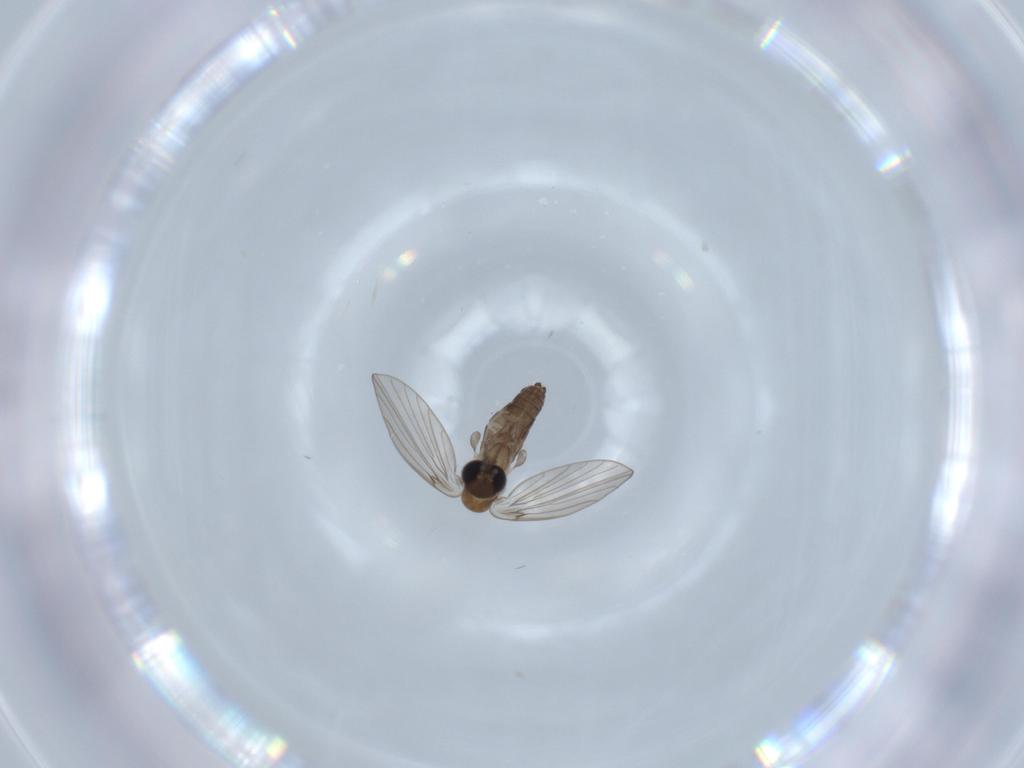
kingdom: Animalia
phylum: Arthropoda
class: Insecta
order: Diptera
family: Psychodidae
